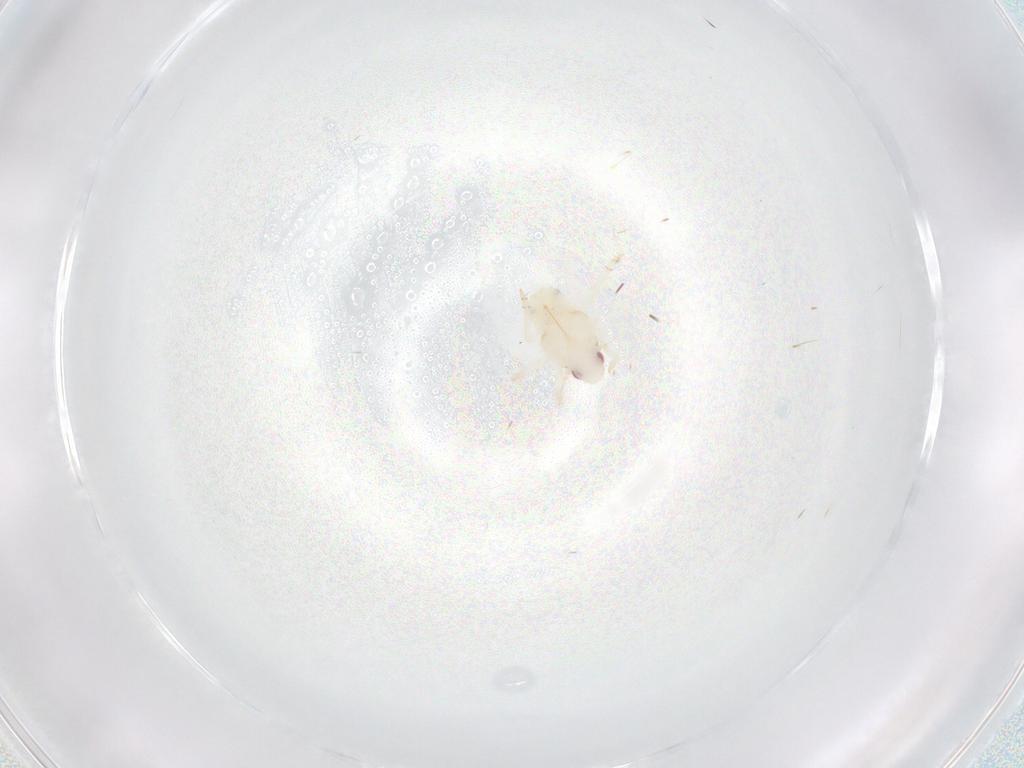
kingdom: Animalia
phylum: Arthropoda
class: Insecta
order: Hemiptera
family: Flatidae
